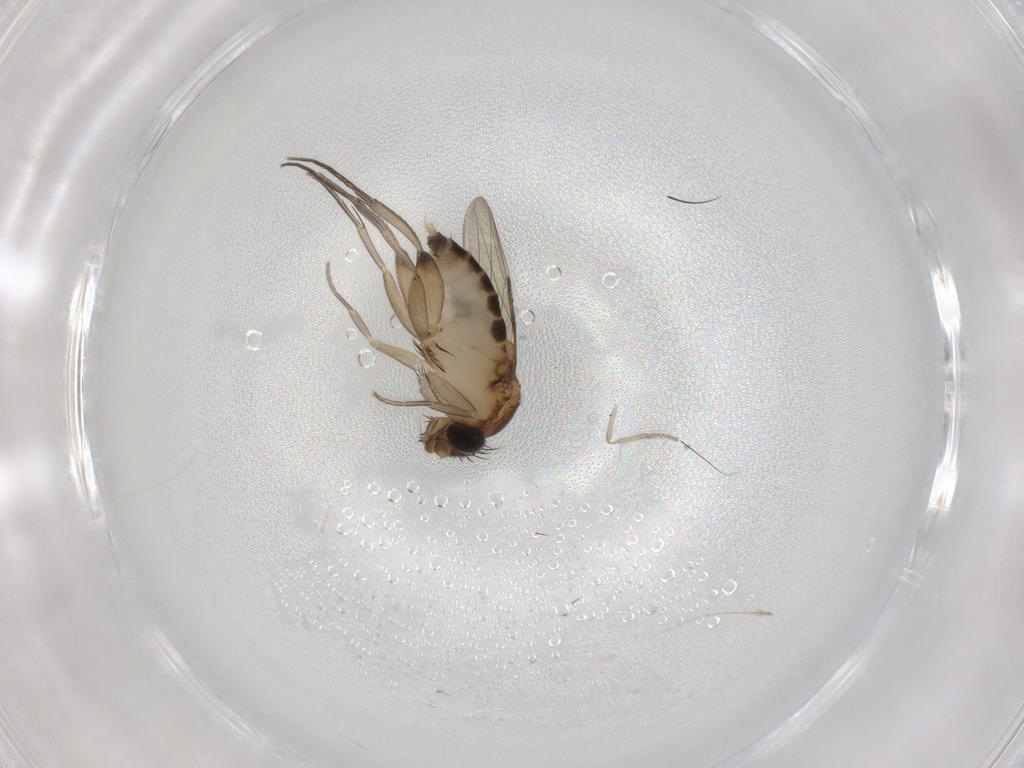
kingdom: Animalia
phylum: Arthropoda
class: Insecta
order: Diptera
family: Phoridae
